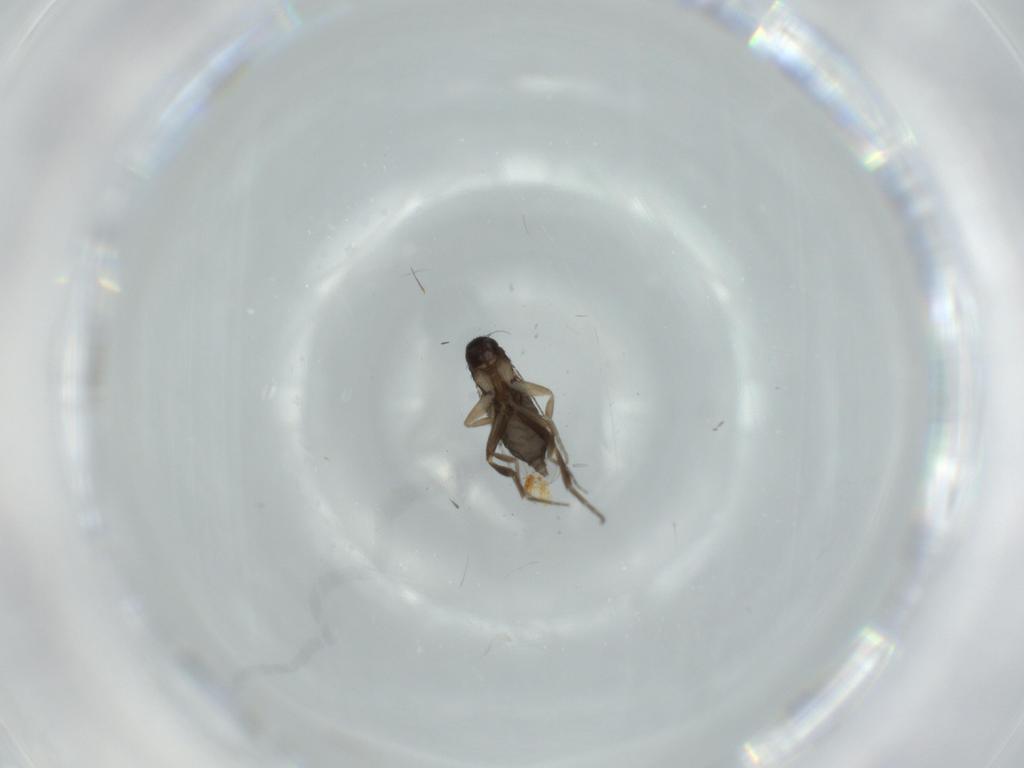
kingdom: Animalia
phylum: Arthropoda
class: Insecta
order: Diptera
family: Phoridae
